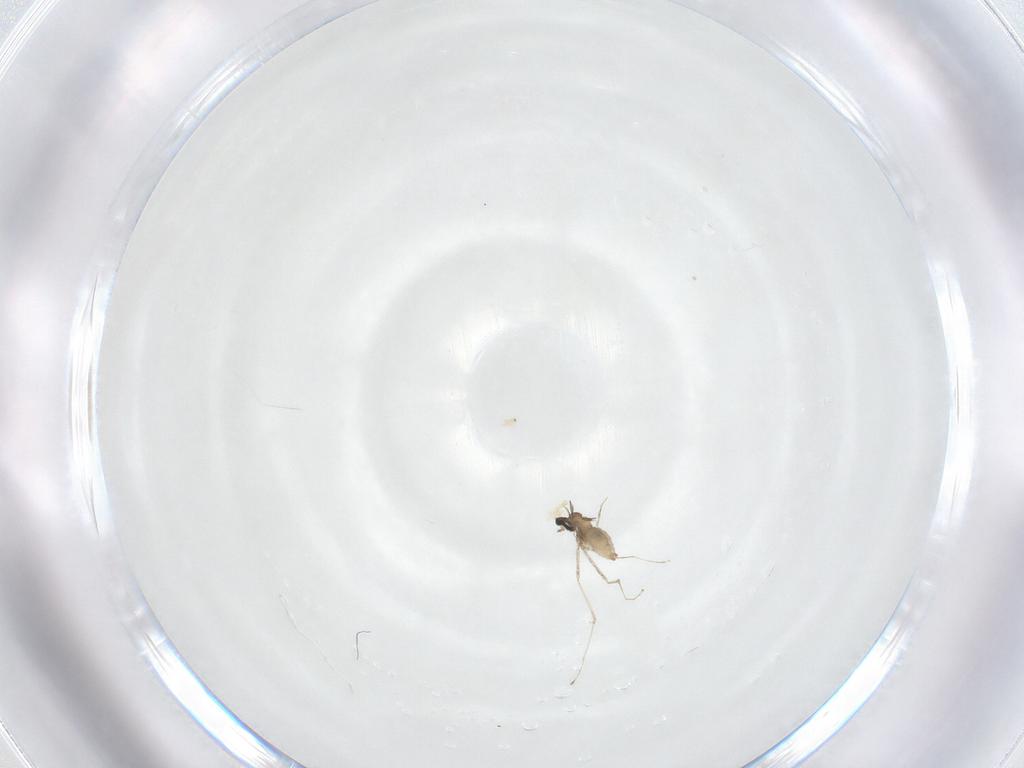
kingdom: Animalia
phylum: Arthropoda
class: Insecta
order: Diptera
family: Cecidomyiidae
